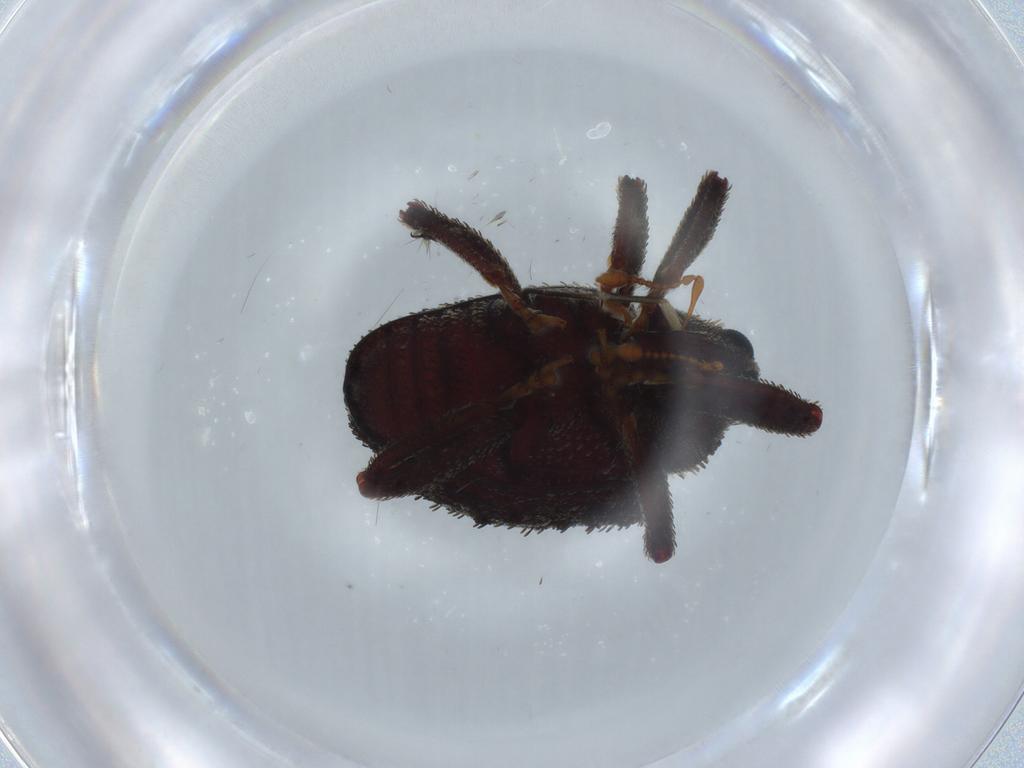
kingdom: Animalia
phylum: Arthropoda
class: Insecta
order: Coleoptera
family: Curculionidae
